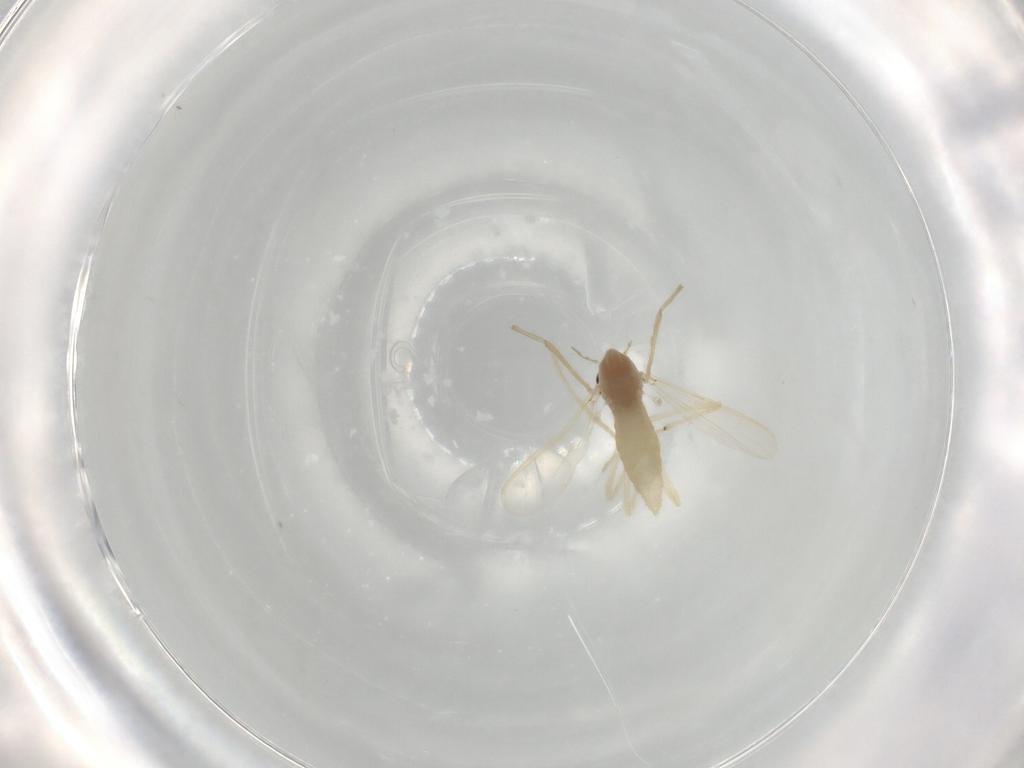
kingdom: Animalia
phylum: Arthropoda
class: Insecta
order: Diptera
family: Chironomidae
